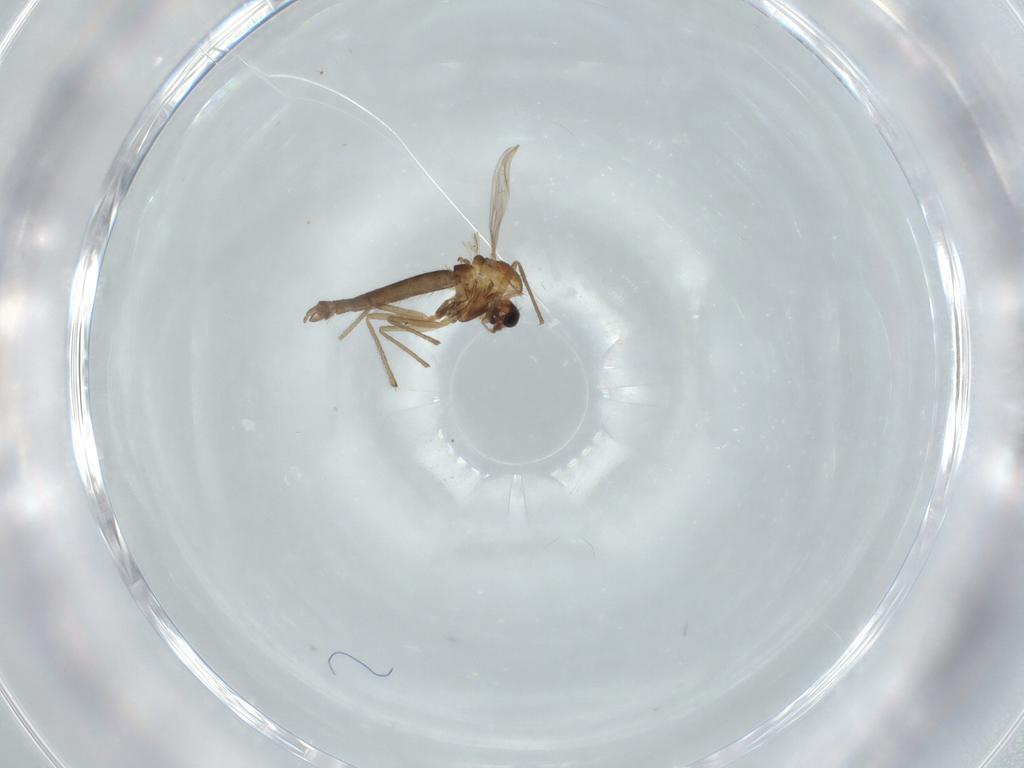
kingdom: Animalia
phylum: Arthropoda
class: Insecta
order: Diptera
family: Chironomidae
